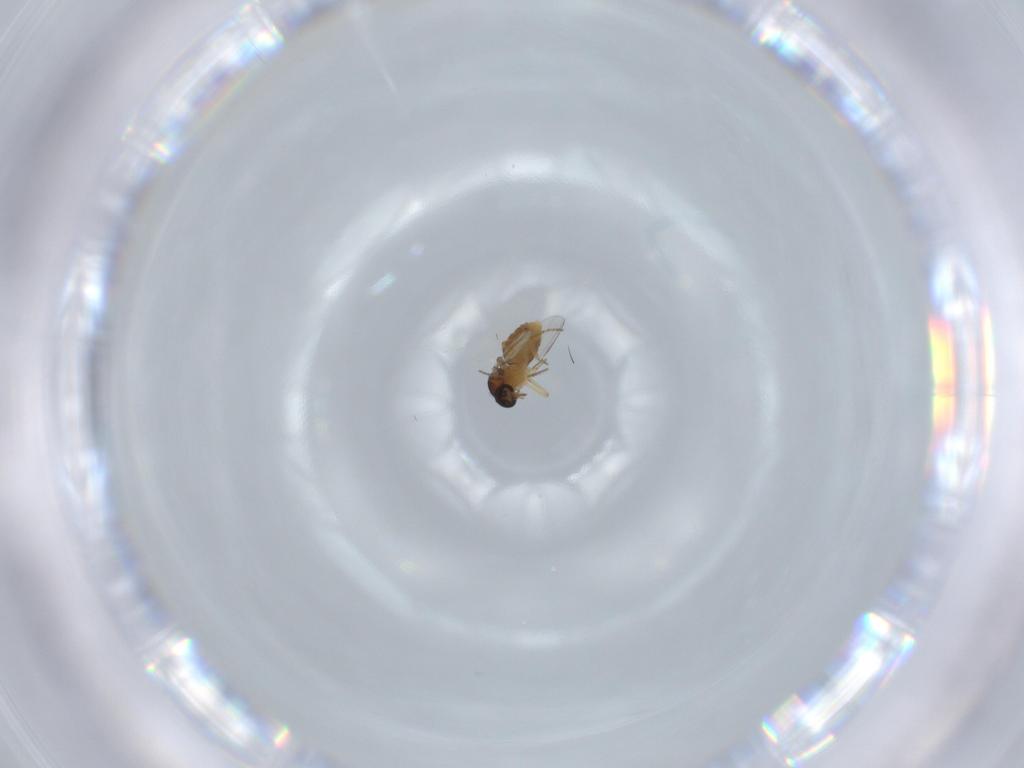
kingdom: Animalia
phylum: Arthropoda
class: Insecta
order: Diptera
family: Ceratopogonidae
